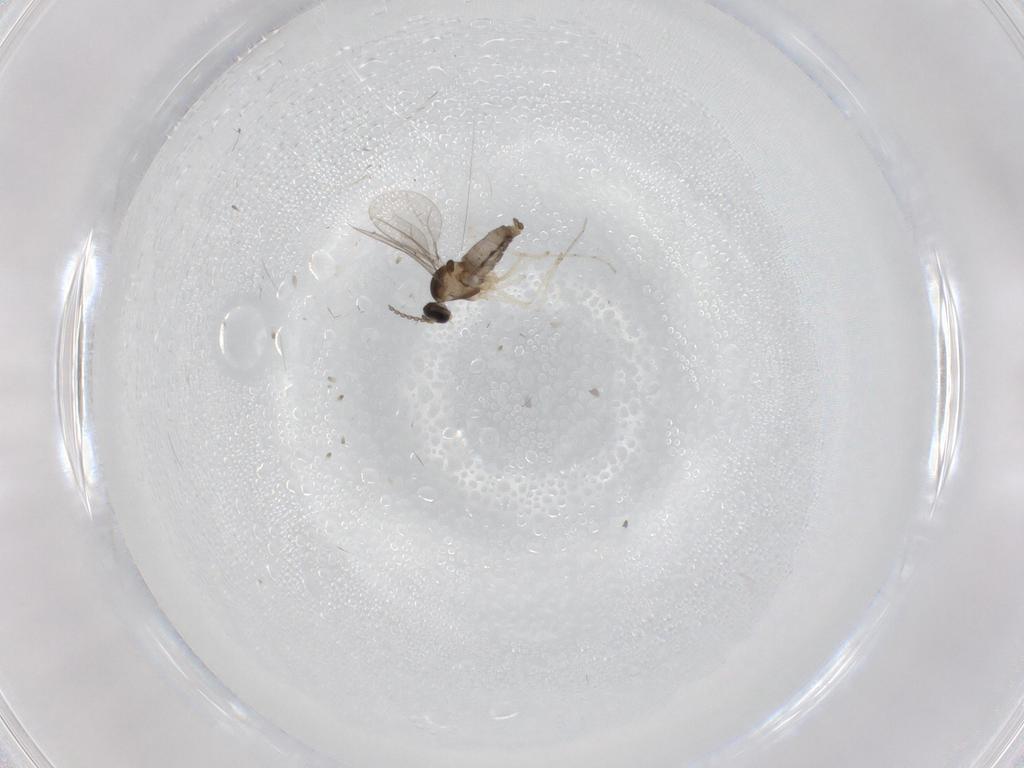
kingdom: Animalia
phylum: Arthropoda
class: Insecta
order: Diptera
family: Cecidomyiidae
